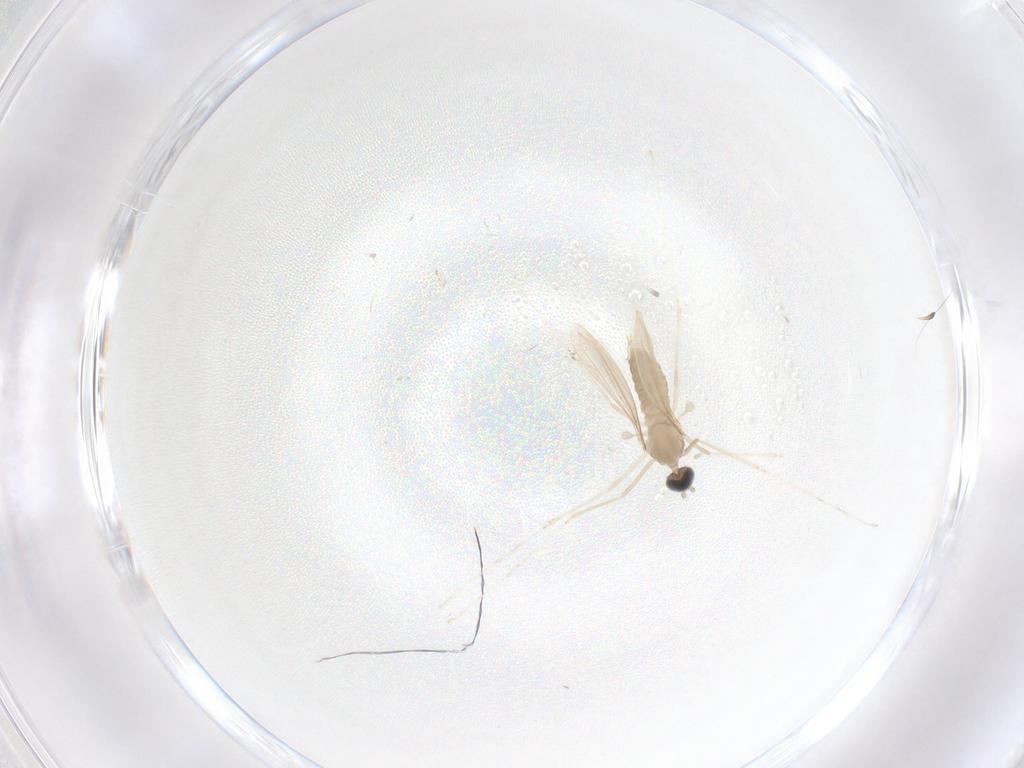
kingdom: Animalia
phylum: Arthropoda
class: Insecta
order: Diptera
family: Cecidomyiidae
